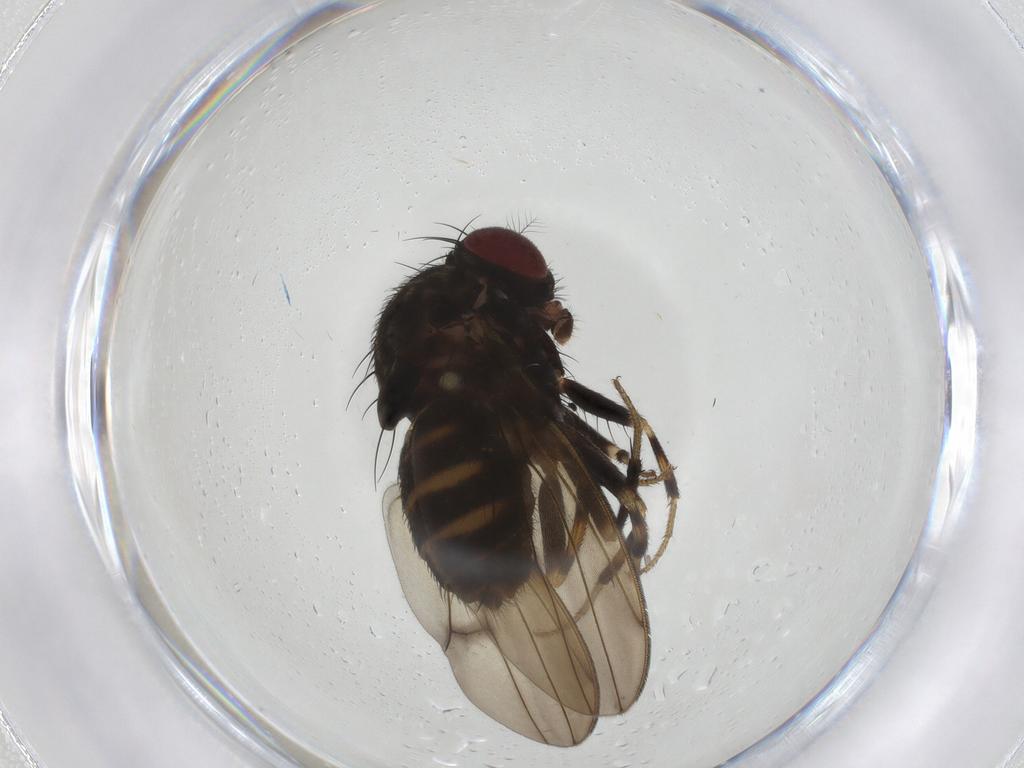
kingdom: Animalia
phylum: Arthropoda
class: Insecta
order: Diptera
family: Drosophilidae
